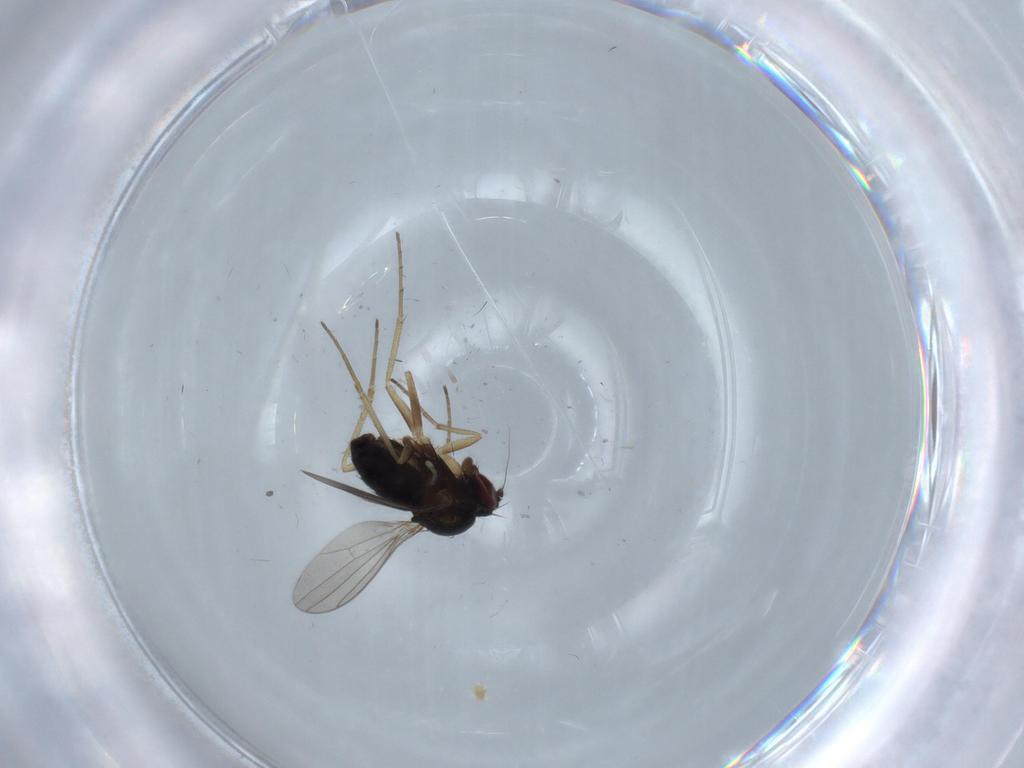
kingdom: Animalia
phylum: Arthropoda
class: Insecta
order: Diptera
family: Dolichopodidae
